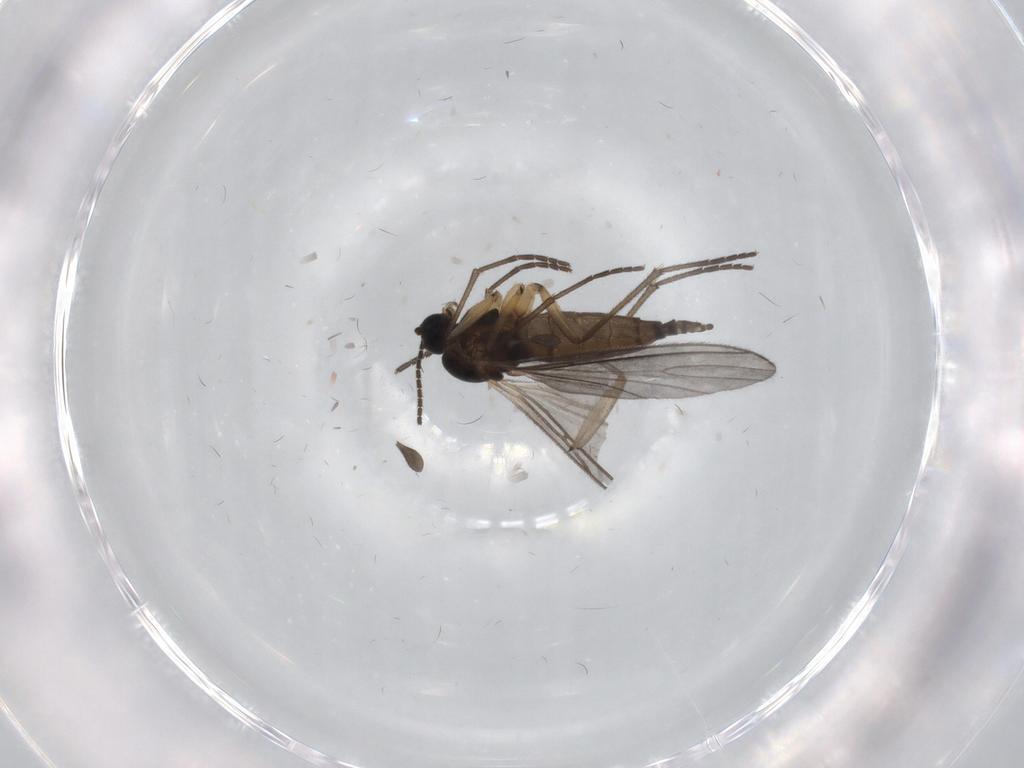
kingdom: Animalia
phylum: Arthropoda
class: Insecta
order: Diptera
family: Sciaridae
